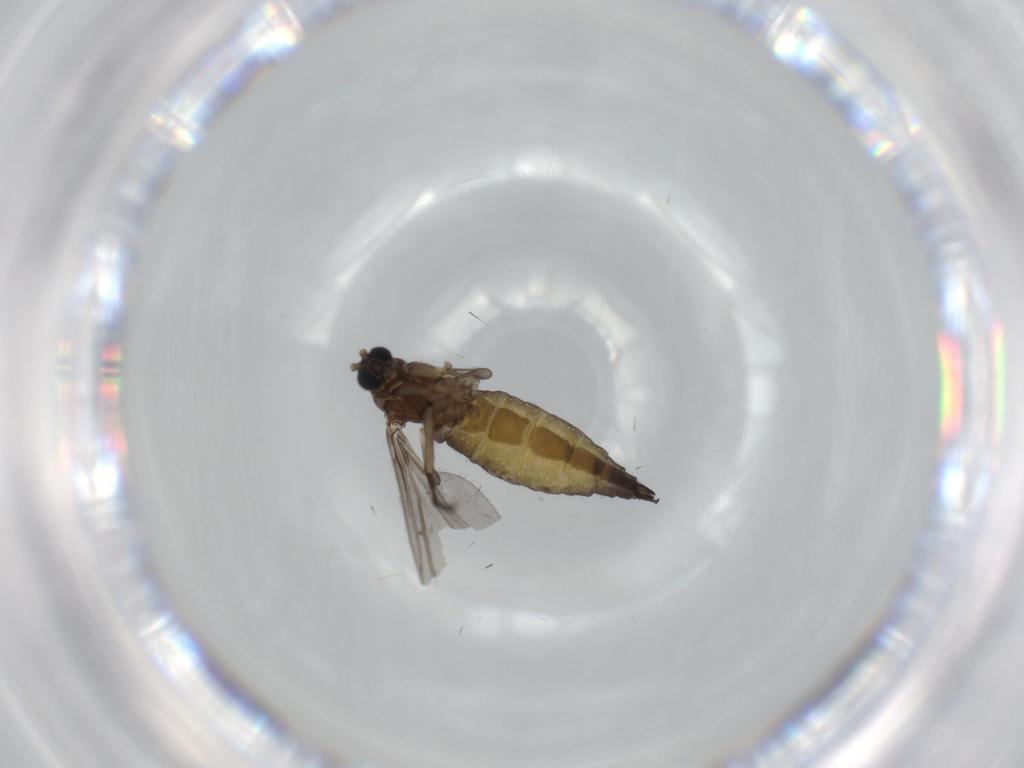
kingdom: Animalia
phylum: Arthropoda
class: Insecta
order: Diptera
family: Sciaridae
